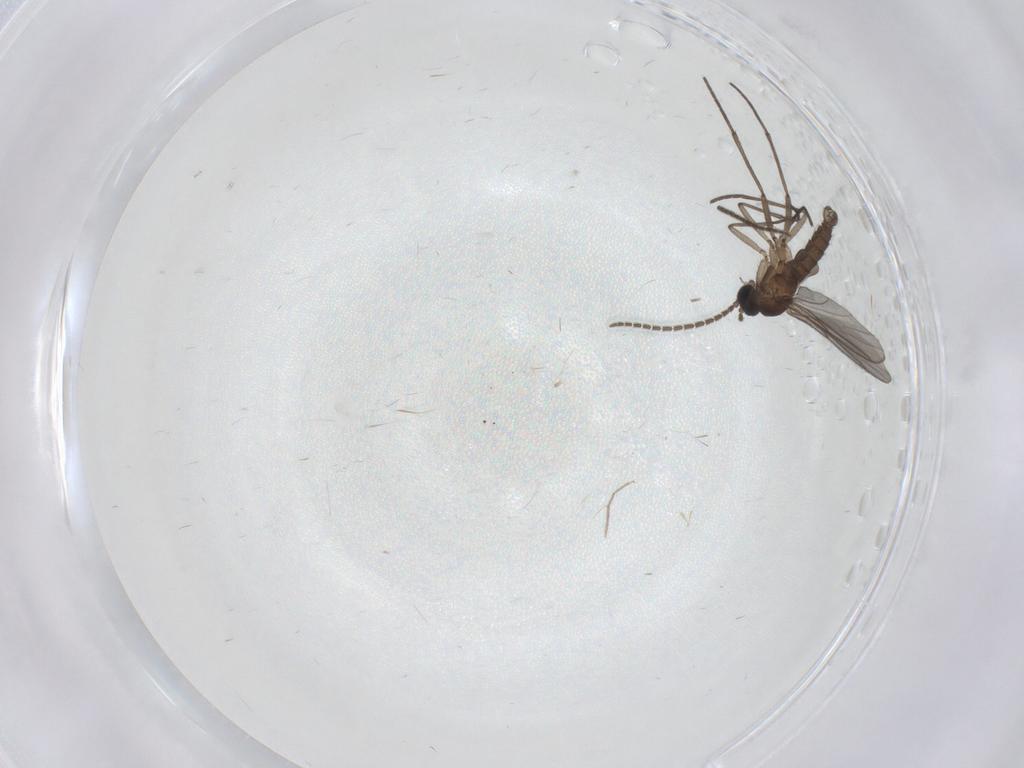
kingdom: Animalia
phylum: Arthropoda
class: Insecta
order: Diptera
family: Chironomidae
